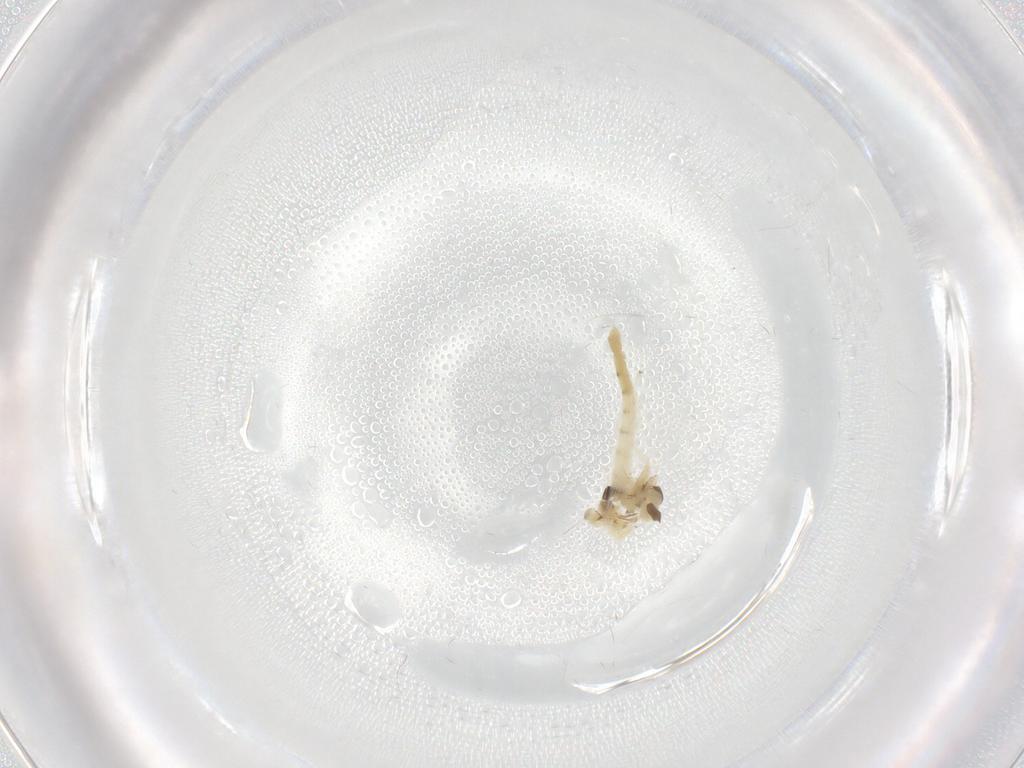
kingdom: Animalia
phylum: Arthropoda
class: Insecta
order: Diptera
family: Chironomidae
